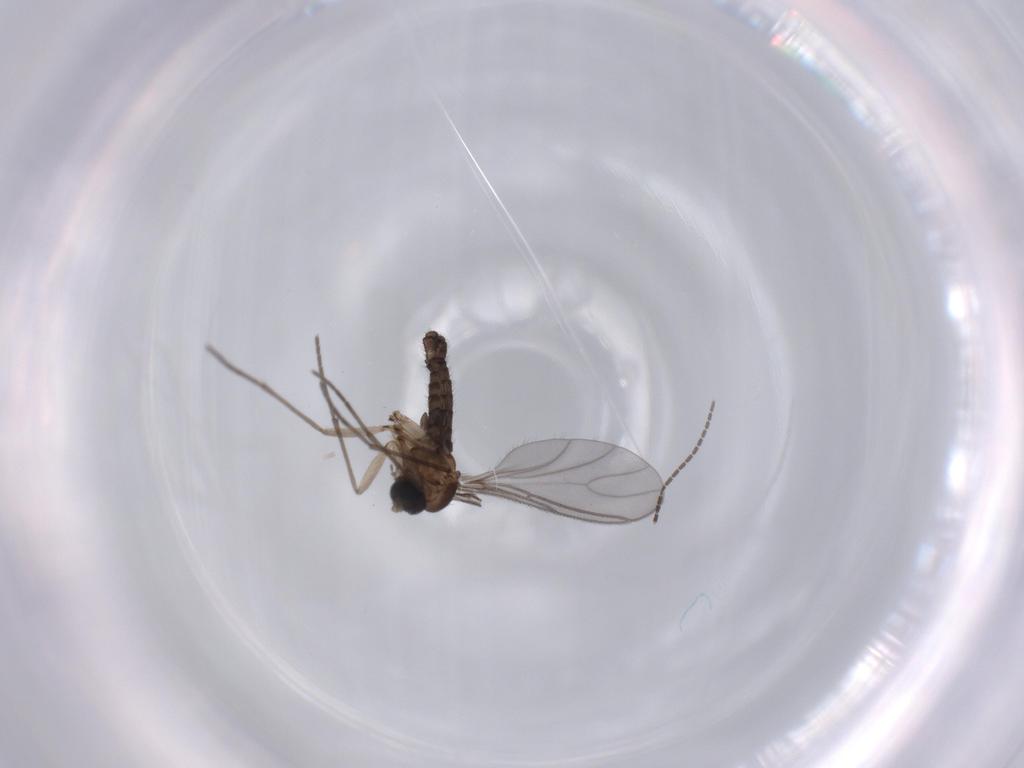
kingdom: Animalia
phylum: Arthropoda
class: Insecta
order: Diptera
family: Sciaridae
